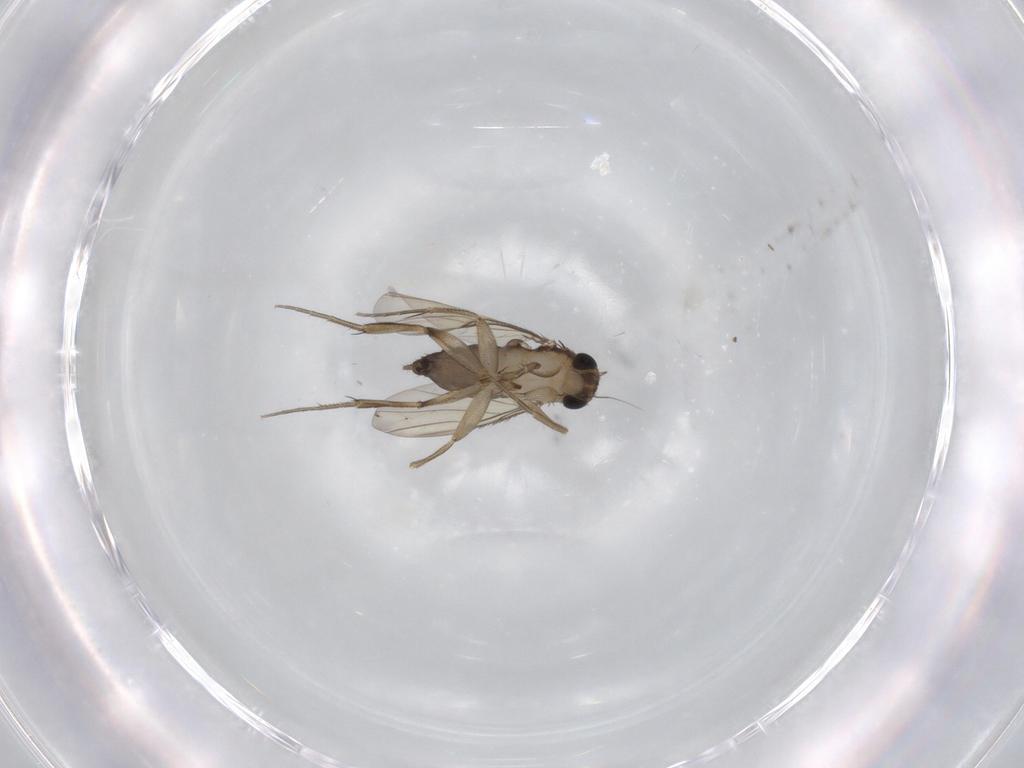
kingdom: Animalia
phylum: Arthropoda
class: Insecta
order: Diptera
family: Phoridae
